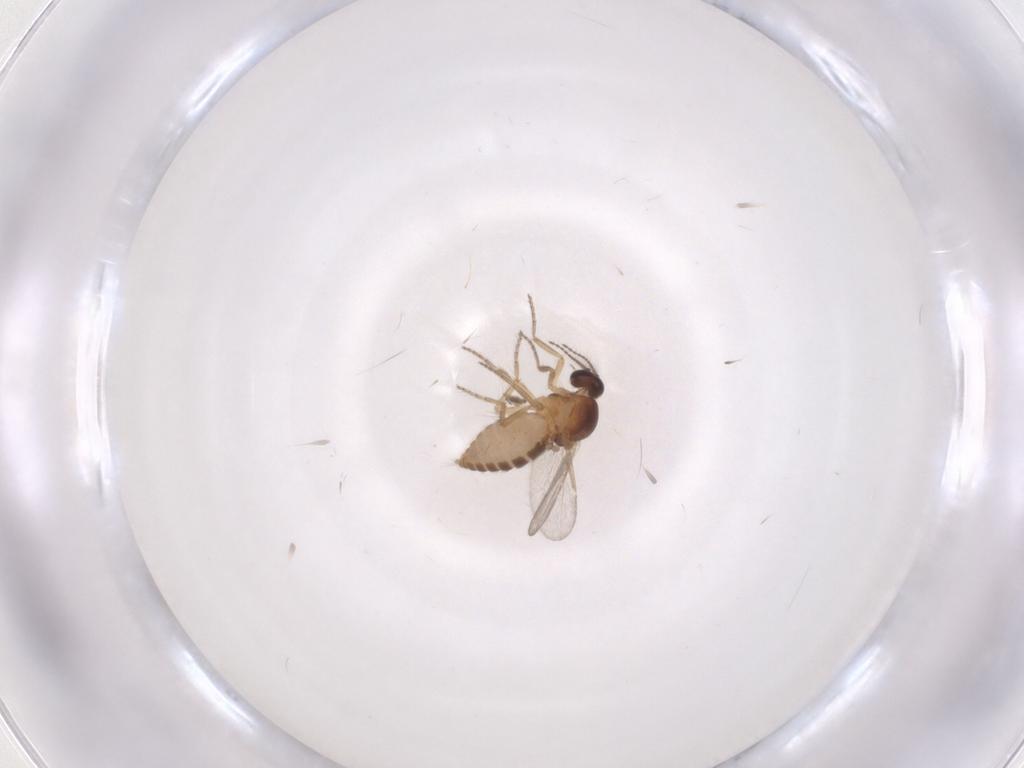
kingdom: Animalia
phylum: Arthropoda
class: Insecta
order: Diptera
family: Ceratopogonidae
